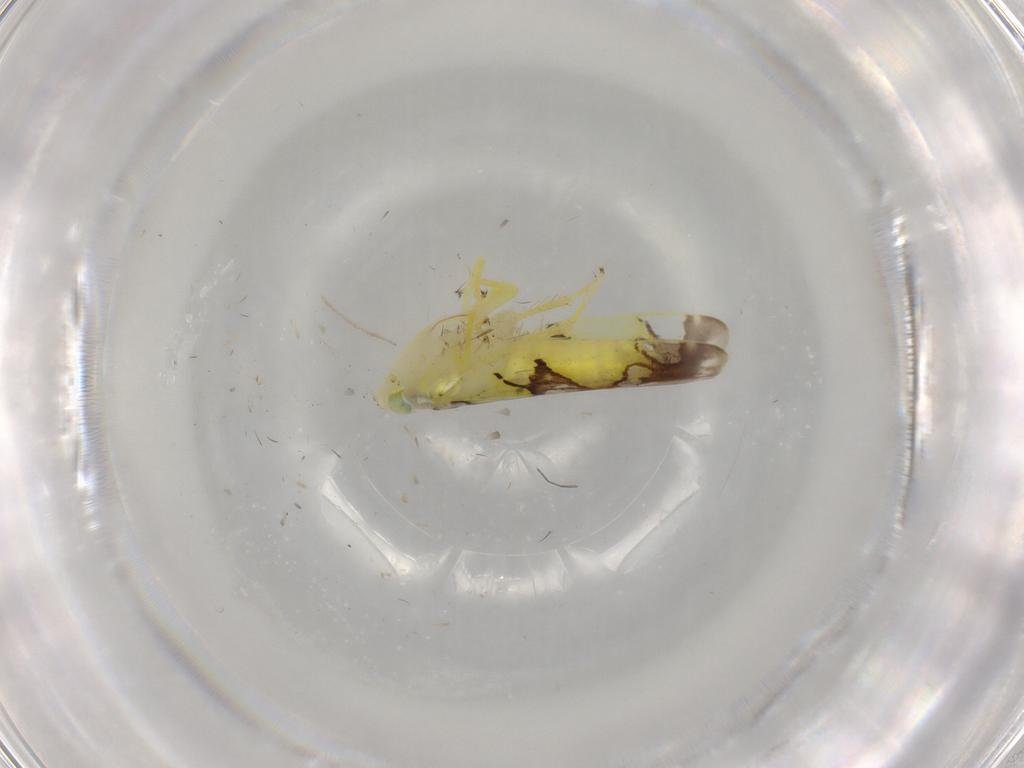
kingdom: Animalia
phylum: Arthropoda
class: Insecta
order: Hemiptera
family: Cicadellidae
